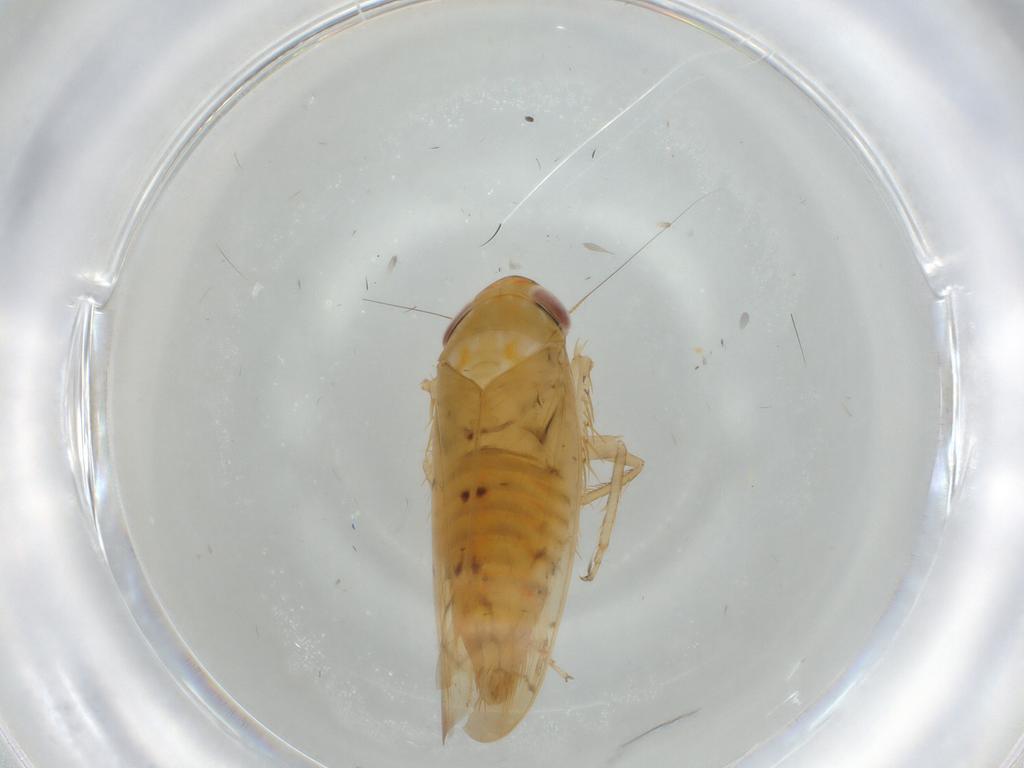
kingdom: Animalia
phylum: Arthropoda
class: Insecta
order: Hemiptera
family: Cicadellidae
